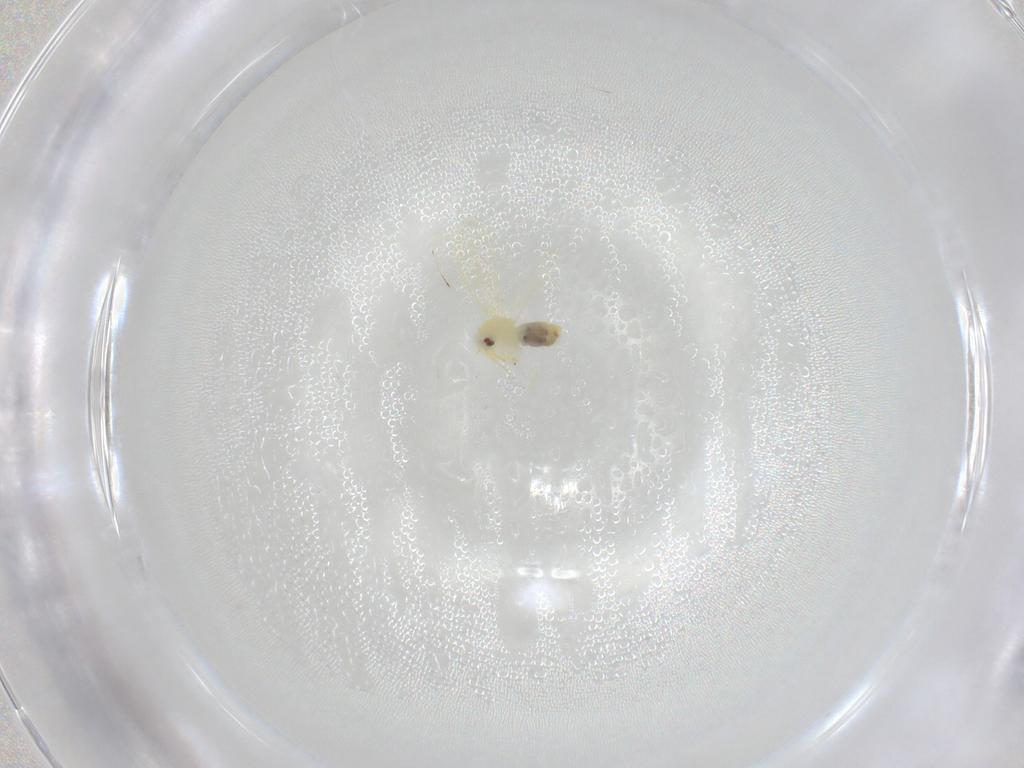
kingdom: Animalia
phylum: Arthropoda
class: Insecta
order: Hemiptera
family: Aleyrodidae
